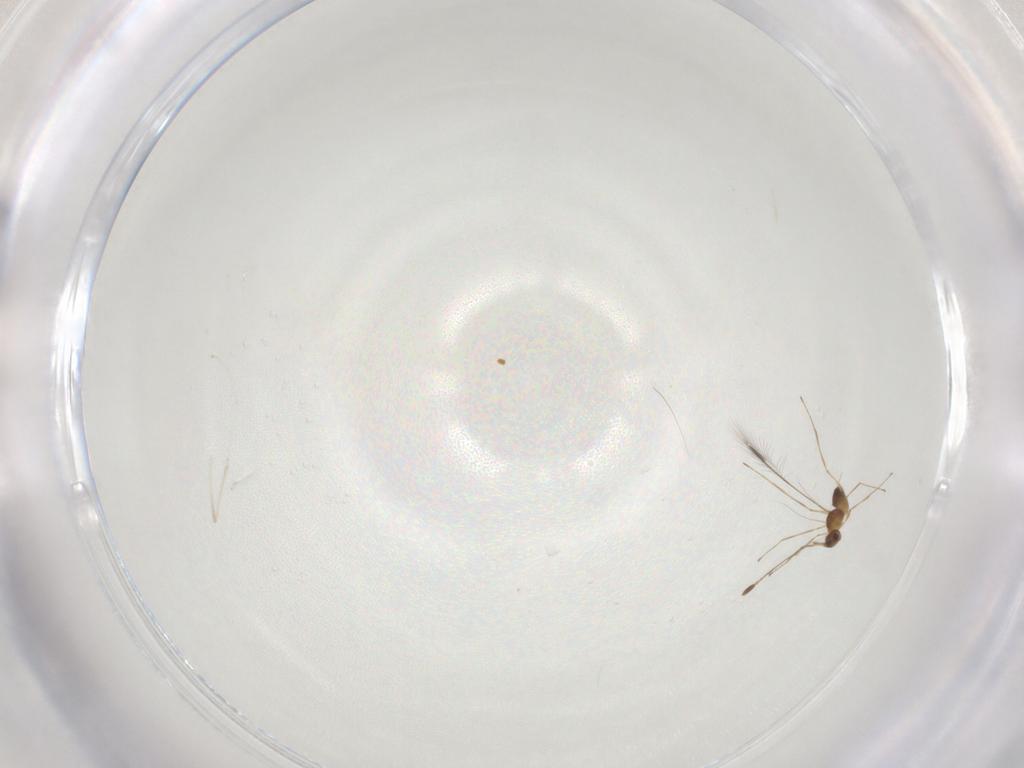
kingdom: Animalia
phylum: Arthropoda
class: Insecta
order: Hymenoptera
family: Mymaridae
